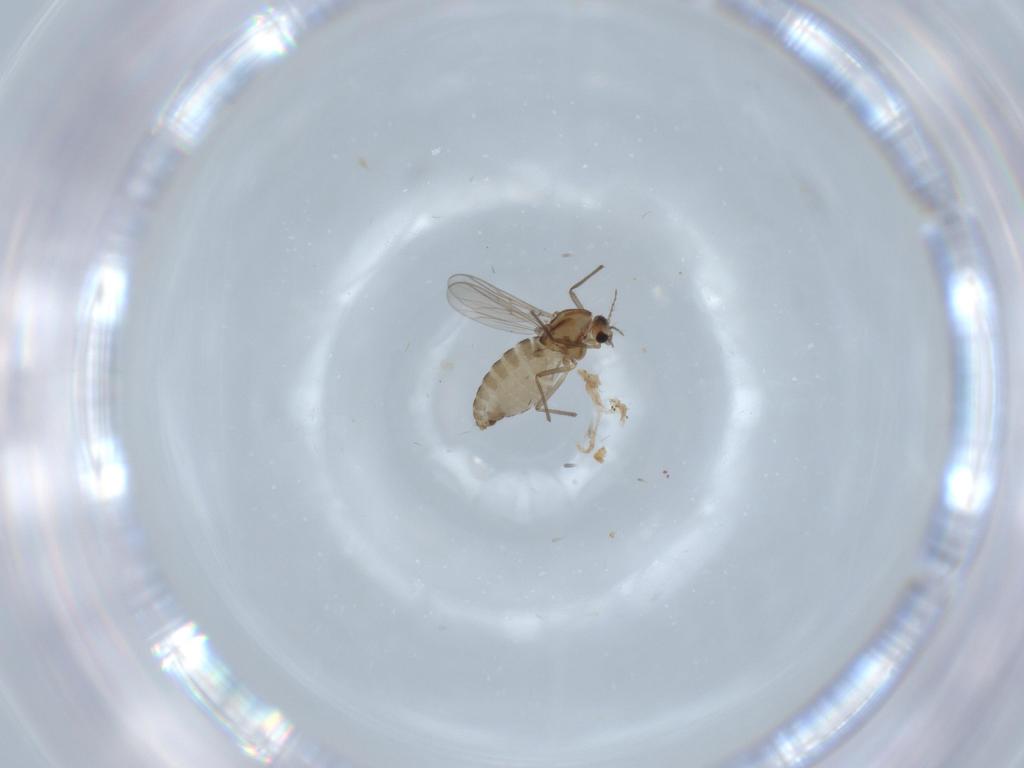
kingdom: Animalia
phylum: Arthropoda
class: Insecta
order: Diptera
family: Chironomidae
